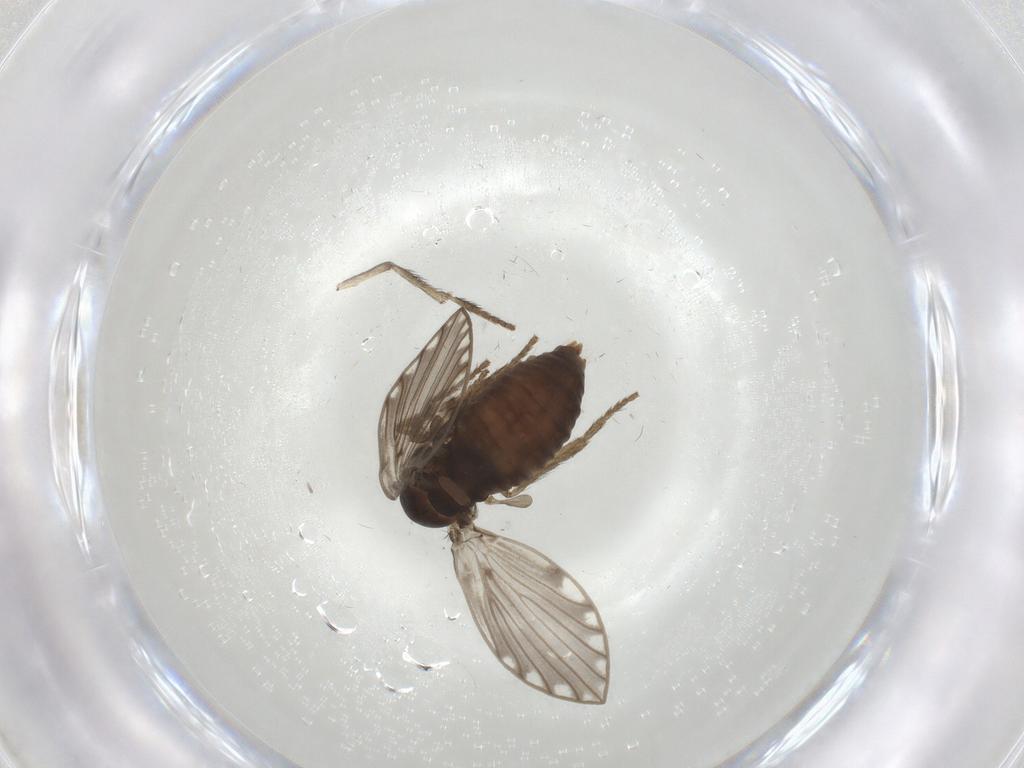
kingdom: Animalia
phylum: Arthropoda
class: Insecta
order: Diptera
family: Psychodidae
